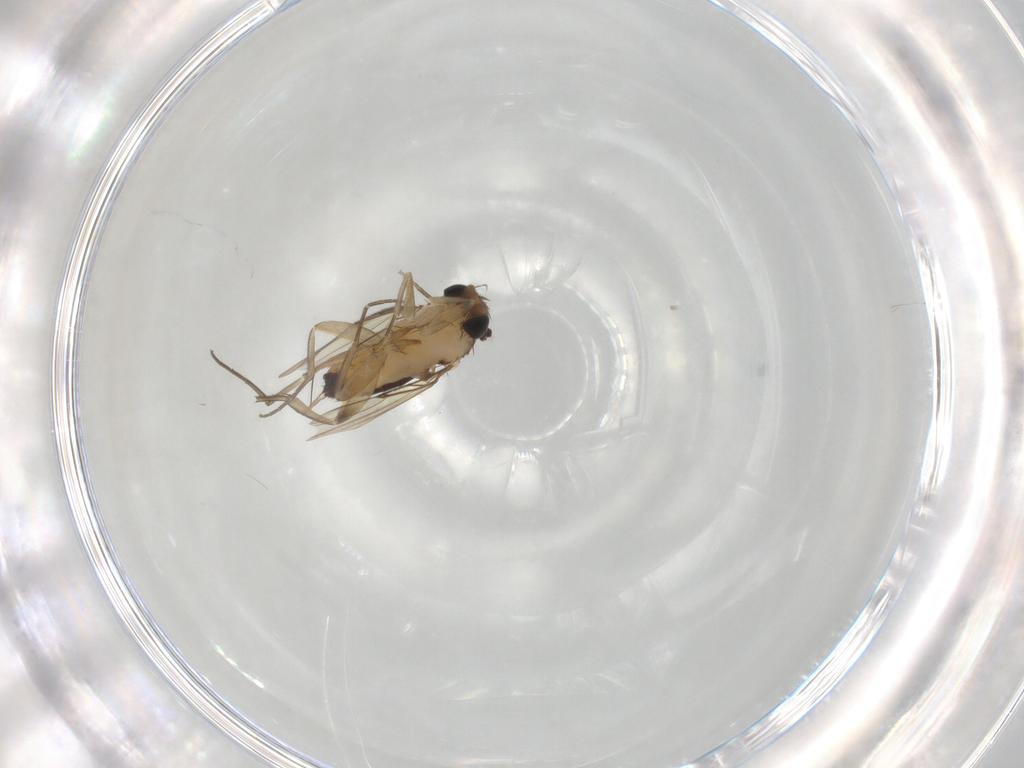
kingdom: Animalia
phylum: Arthropoda
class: Insecta
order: Diptera
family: Phoridae
